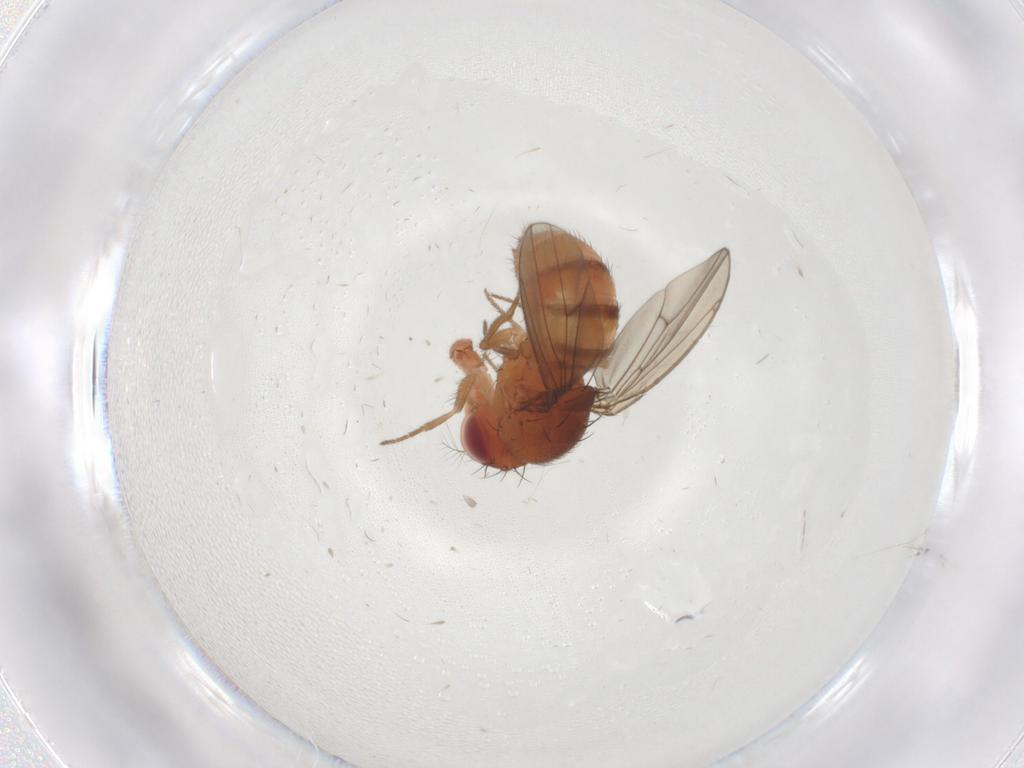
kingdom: Animalia
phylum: Arthropoda
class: Insecta
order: Diptera
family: Drosophilidae
